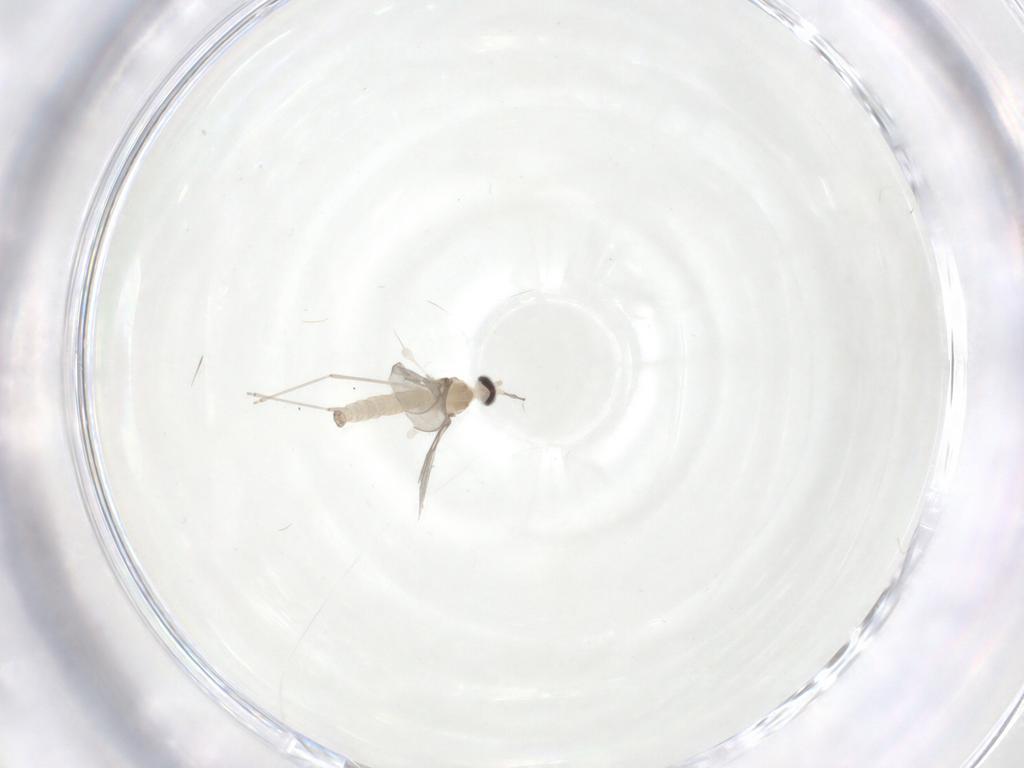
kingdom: Animalia
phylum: Arthropoda
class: Insecta
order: Diptera
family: Cecidomyiidae
